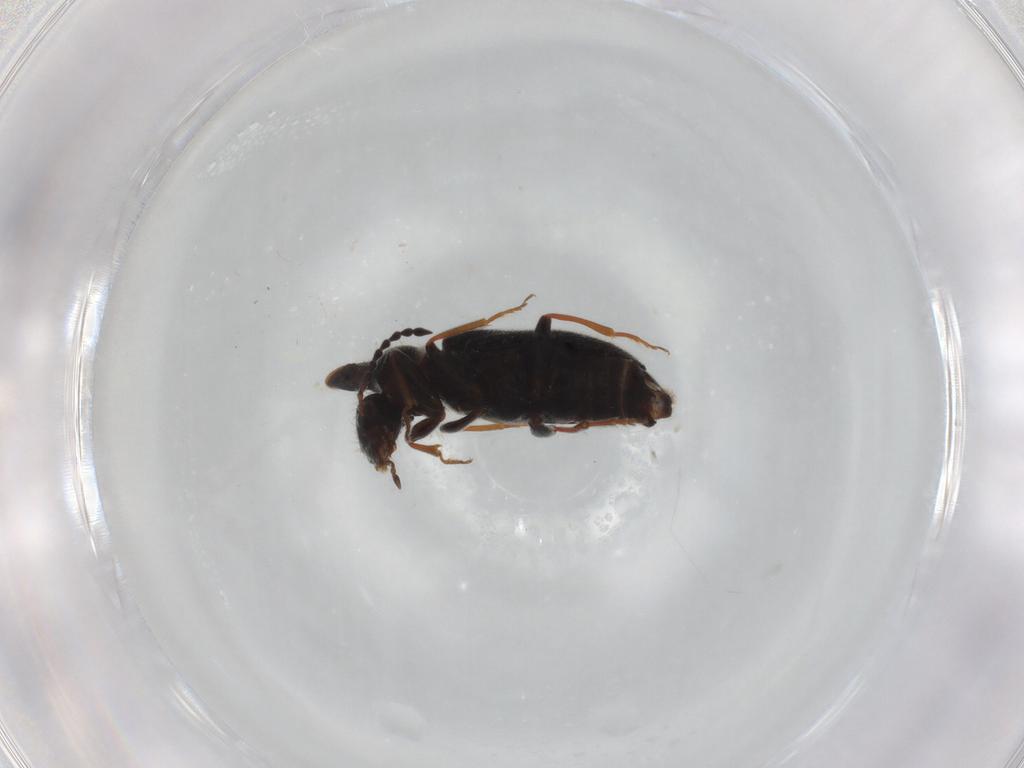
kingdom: Animalia
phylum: Arthropoda
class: Insecta
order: Coleoptera
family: Anthicidae
